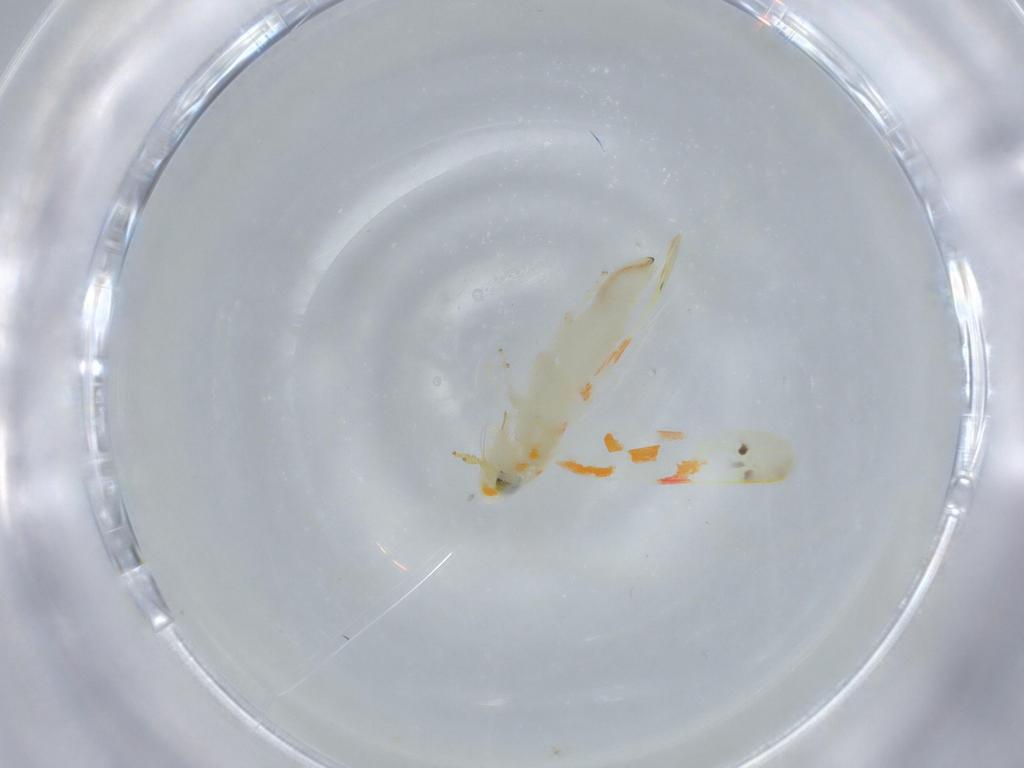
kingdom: Animalia
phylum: Arthropoda
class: Insecta
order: Hemiptera
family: Cicadellidae
